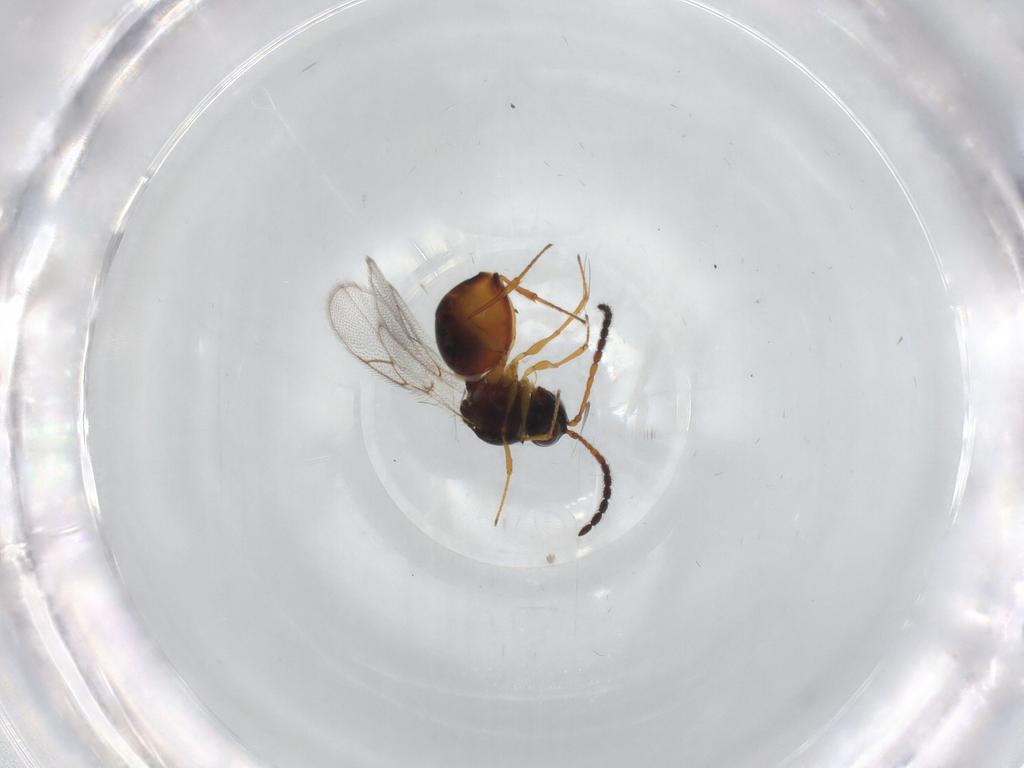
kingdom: Animalia
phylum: Arthropoda
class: Insecta
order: Hymenoptera
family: Figitidae
